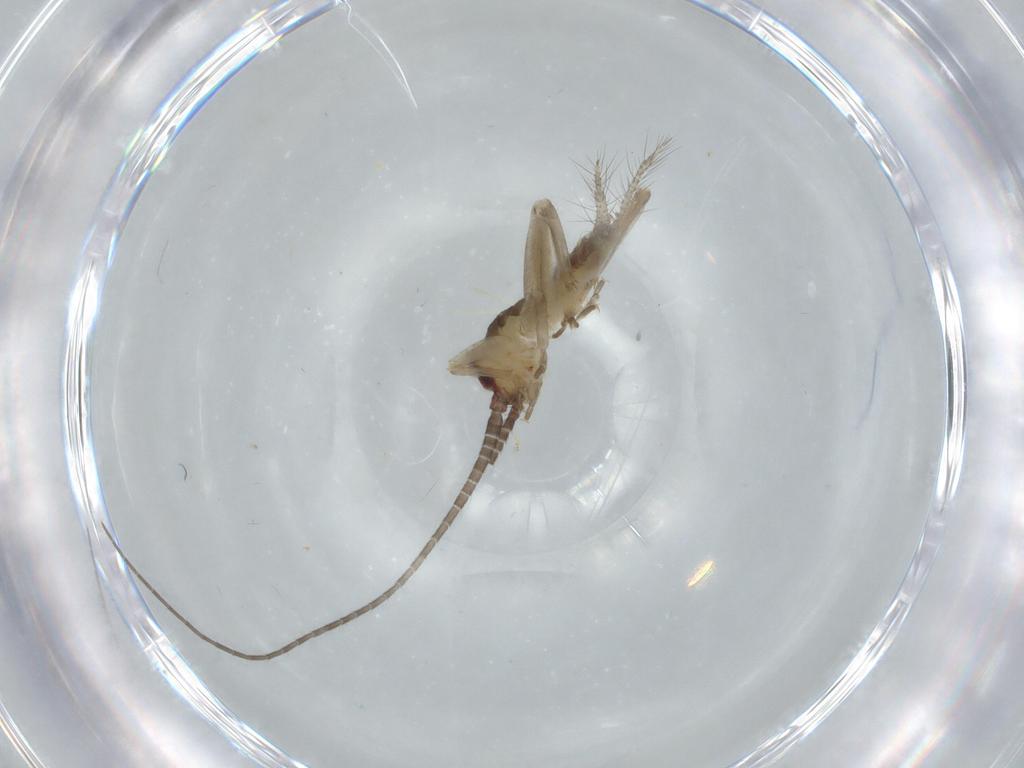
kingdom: Animalia
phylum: Arthropoda
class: Insecta
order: Orthoptera
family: Gryllidae
